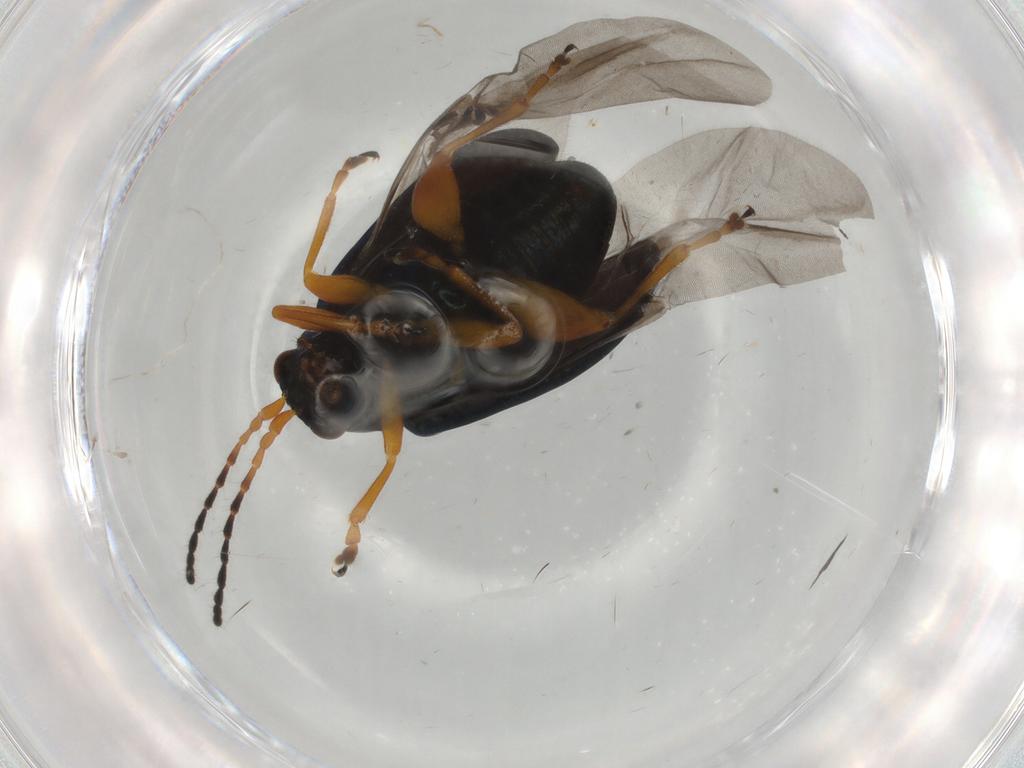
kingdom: Animalia
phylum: Arthropoda
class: Insecta
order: Coleoptera
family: Chrysomelidae
